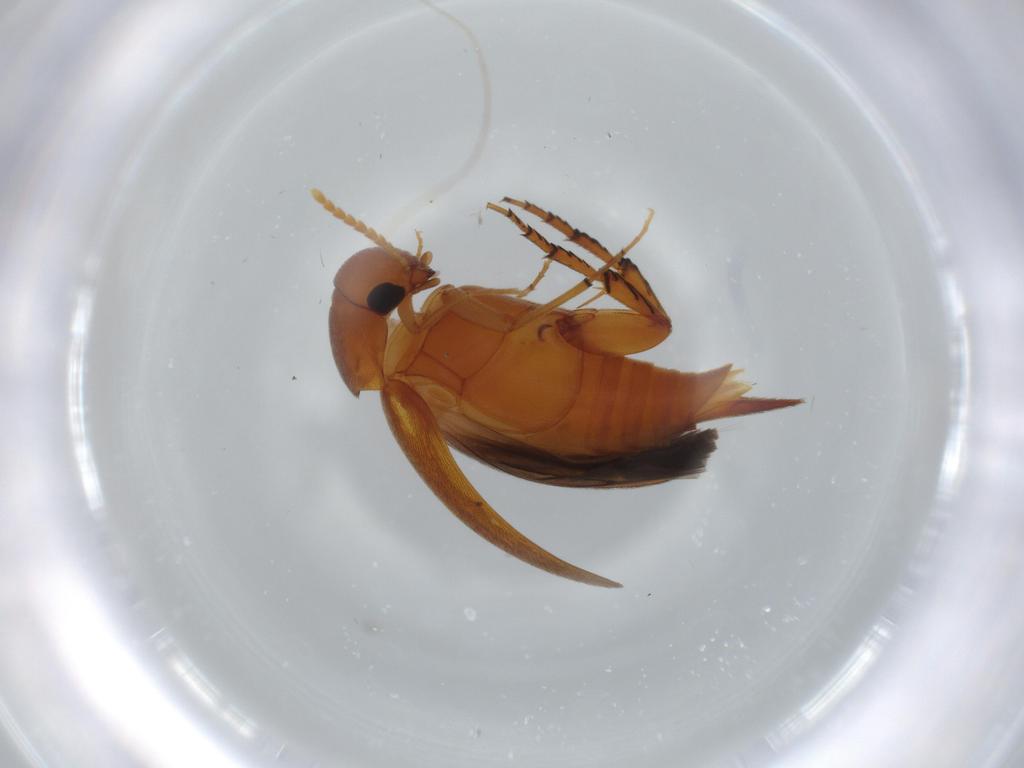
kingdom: Animalia
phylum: Arthropoda
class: Insecta
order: Coleoptera
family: Mordellidae
